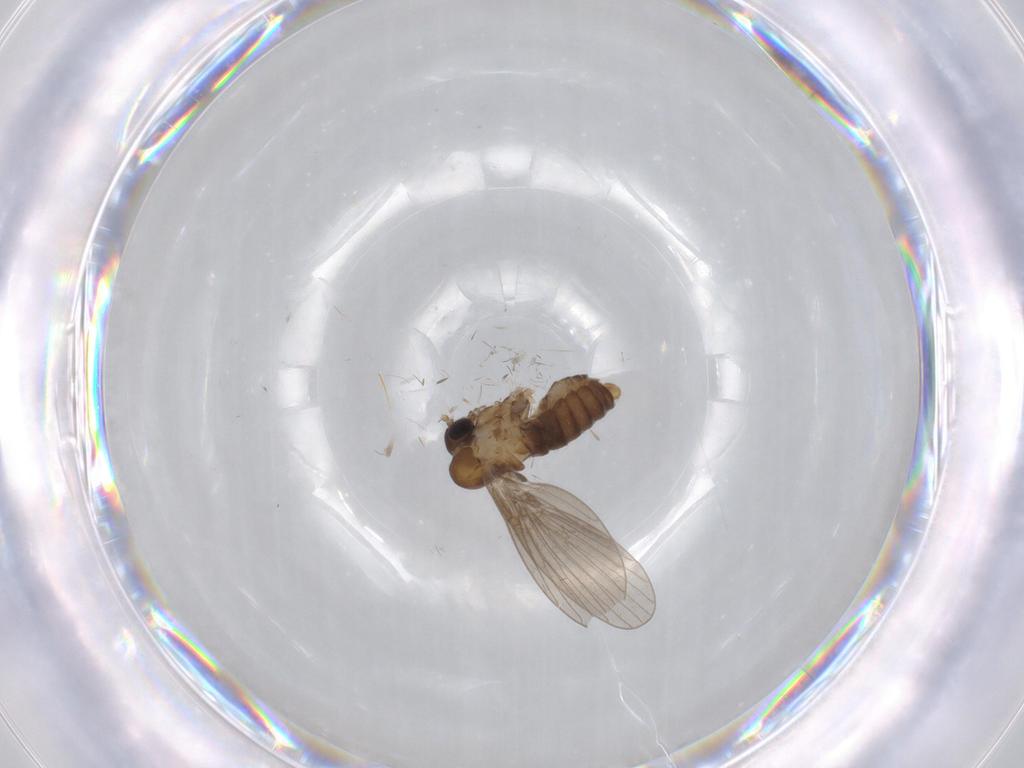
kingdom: Animalia
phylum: Arthropoda
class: Insecta
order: Diptera
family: Psychodidae
